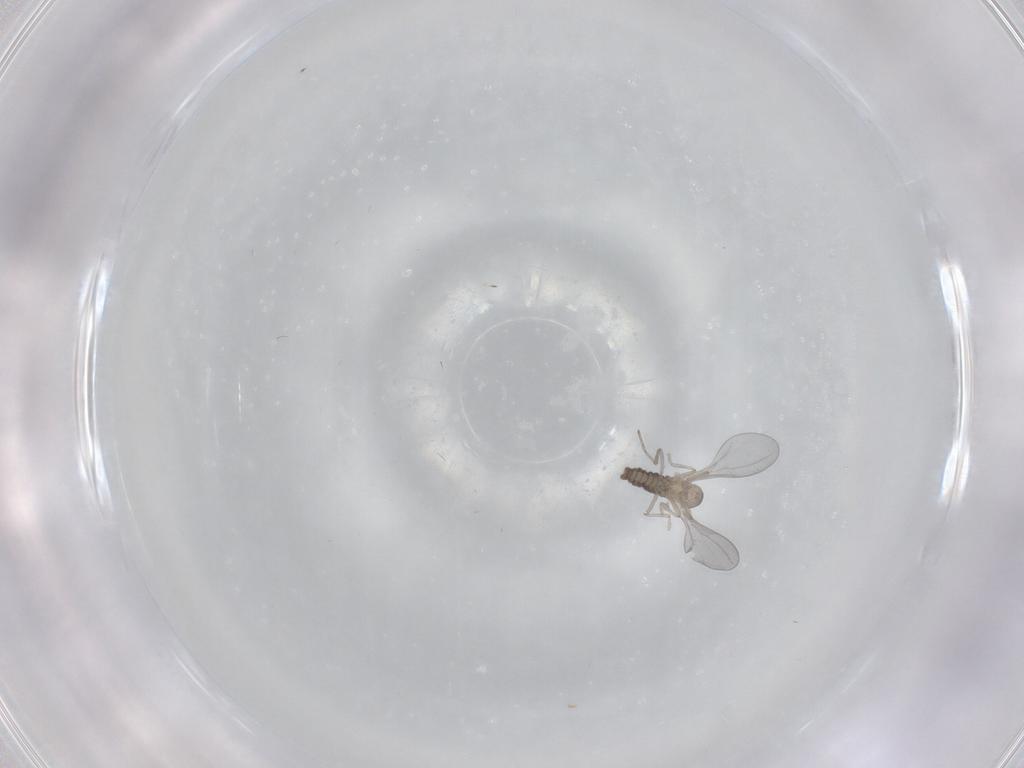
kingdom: Animalia
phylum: Arthropoda
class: Insecta
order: Diptera
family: Cecidomyiidae
